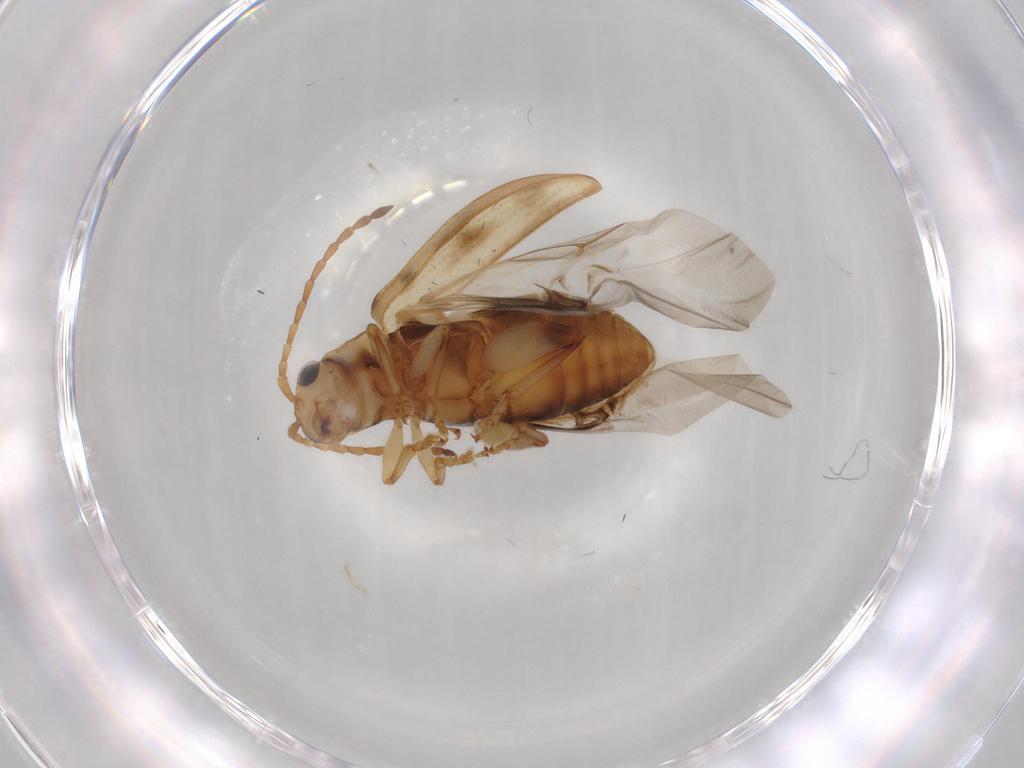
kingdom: Animalia
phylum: Arthropoda
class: Insecta
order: Coleoptera
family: Chrysomelidae
